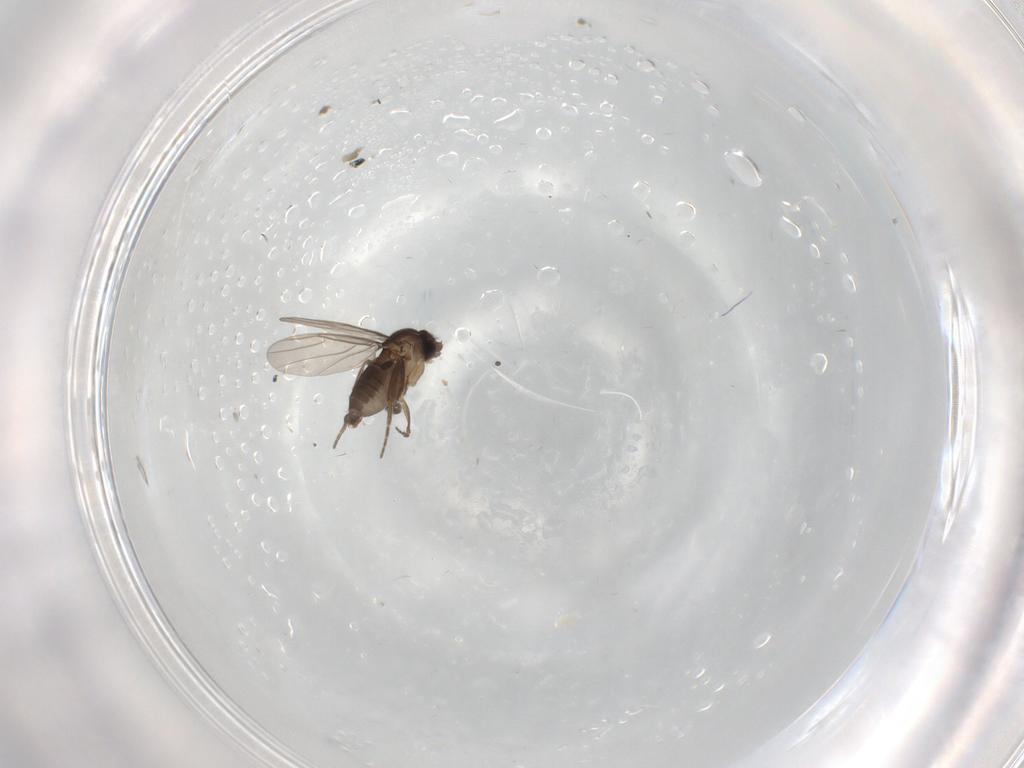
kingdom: Animalia
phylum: Arthropoda
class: Insecta
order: Diptera
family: Phoridae
